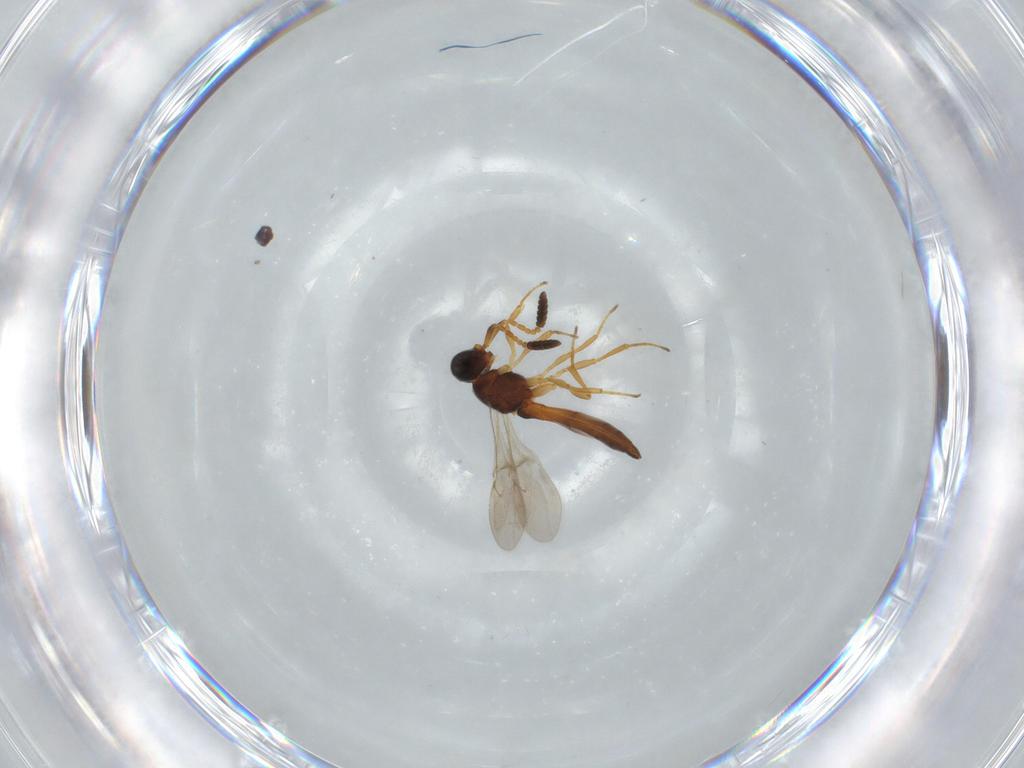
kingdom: Animalia
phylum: Arthropoda
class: Insecta
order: Hymenoptera
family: Scelionidae
